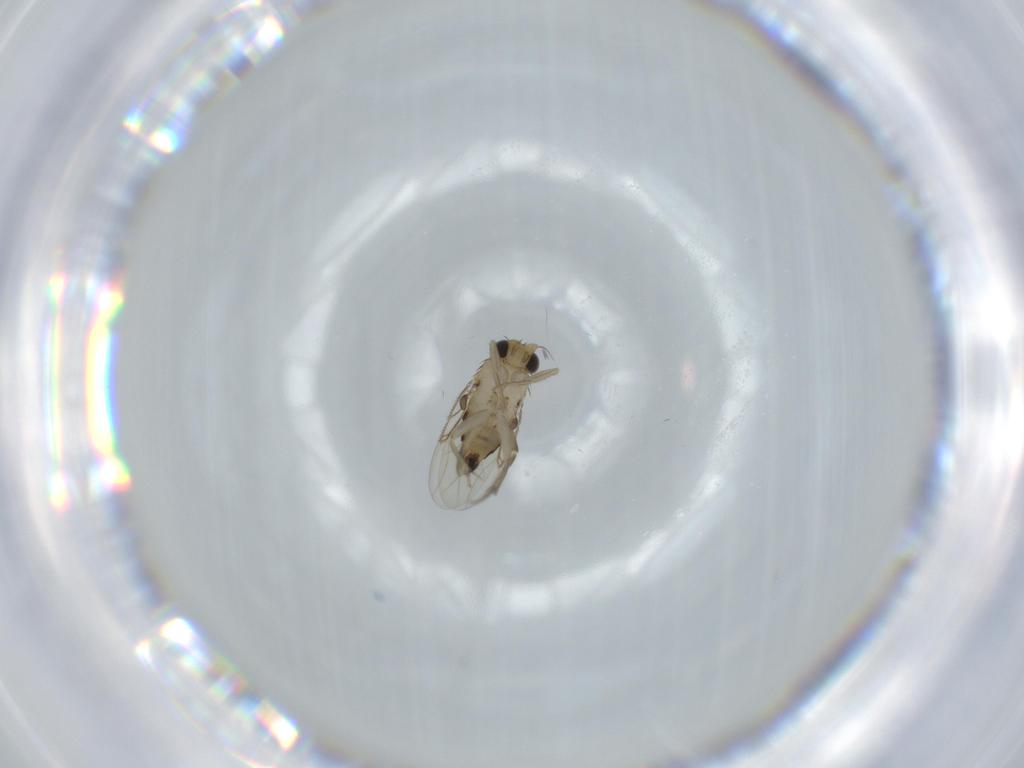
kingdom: Animalia
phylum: Arthropoda
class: Insecta
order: Diptera
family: Phoridae
